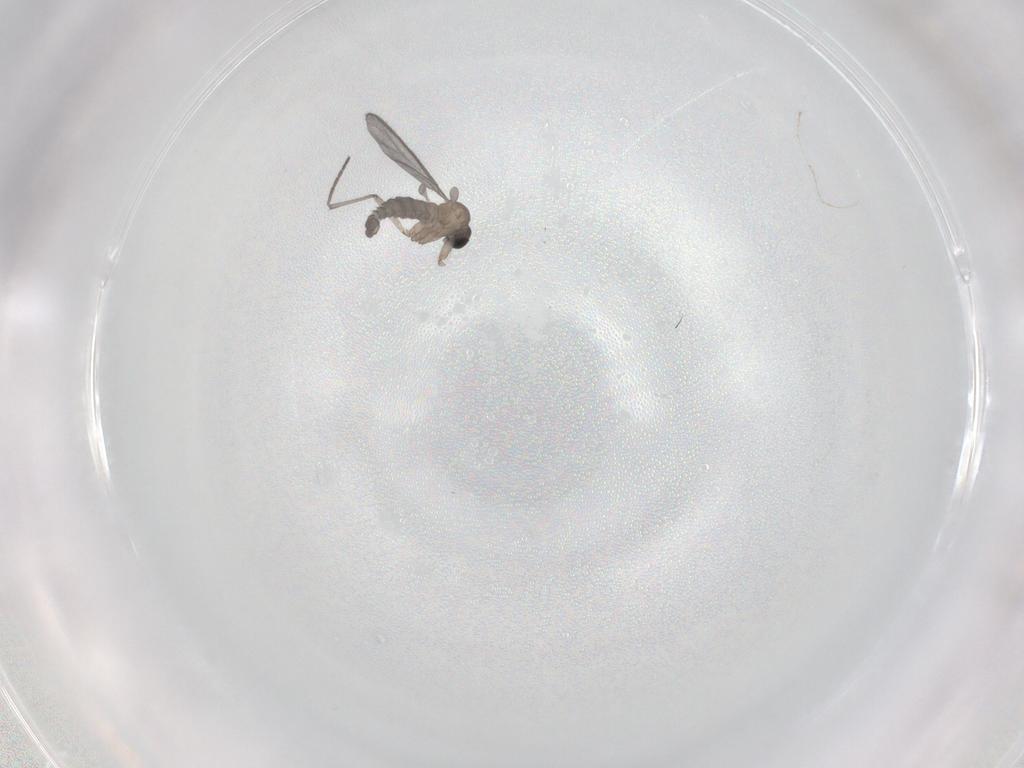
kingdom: Animalia
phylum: Arthropoda
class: Insecta
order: Diptera
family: Cecidomyiidae
